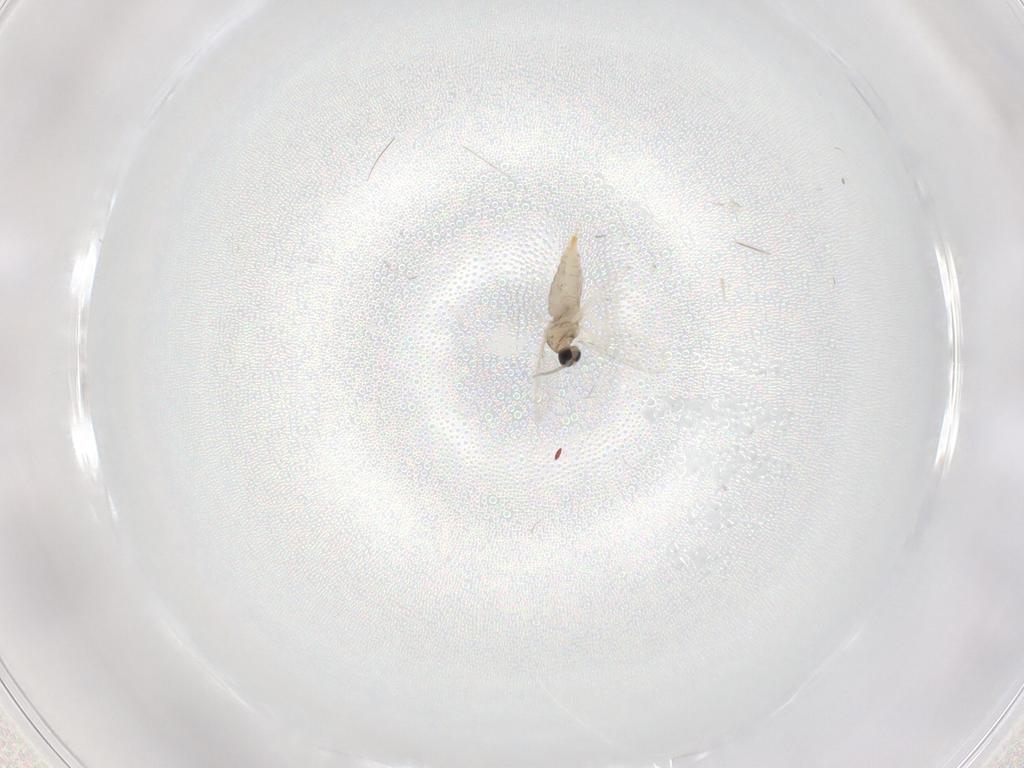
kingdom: Animalia
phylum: Arthropoda
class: Insecta
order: Diptera
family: Cecidomyiidae
